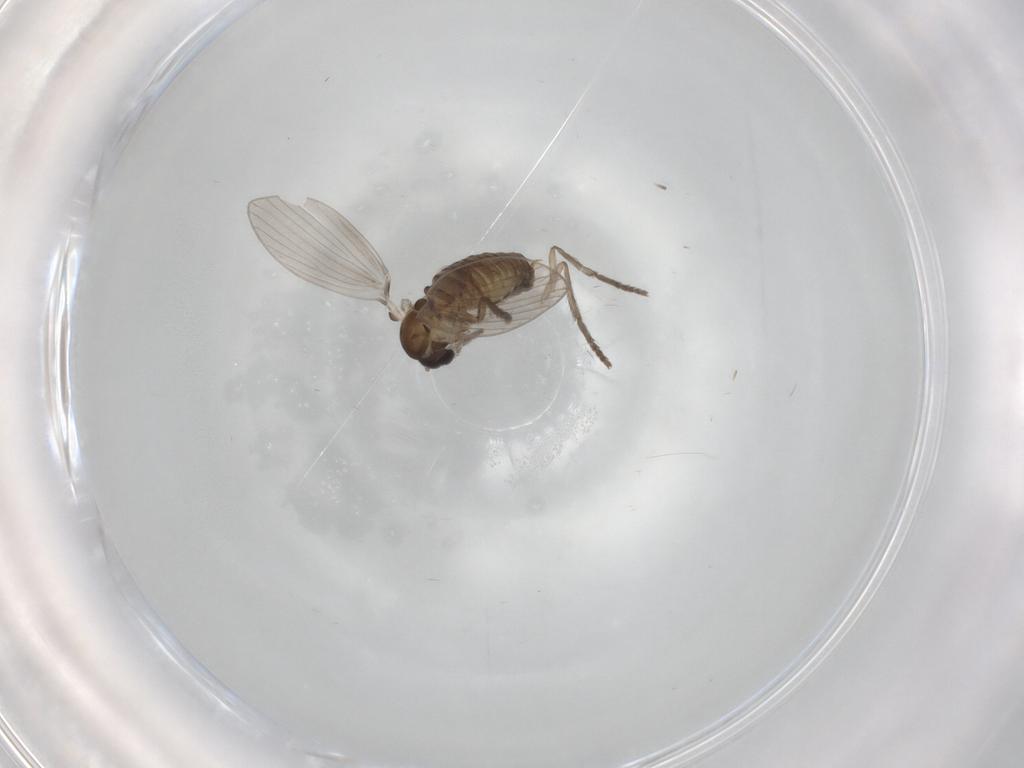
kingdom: Animalia
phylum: Arthropoda
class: Insecta
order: Diptera
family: Psychodidae
